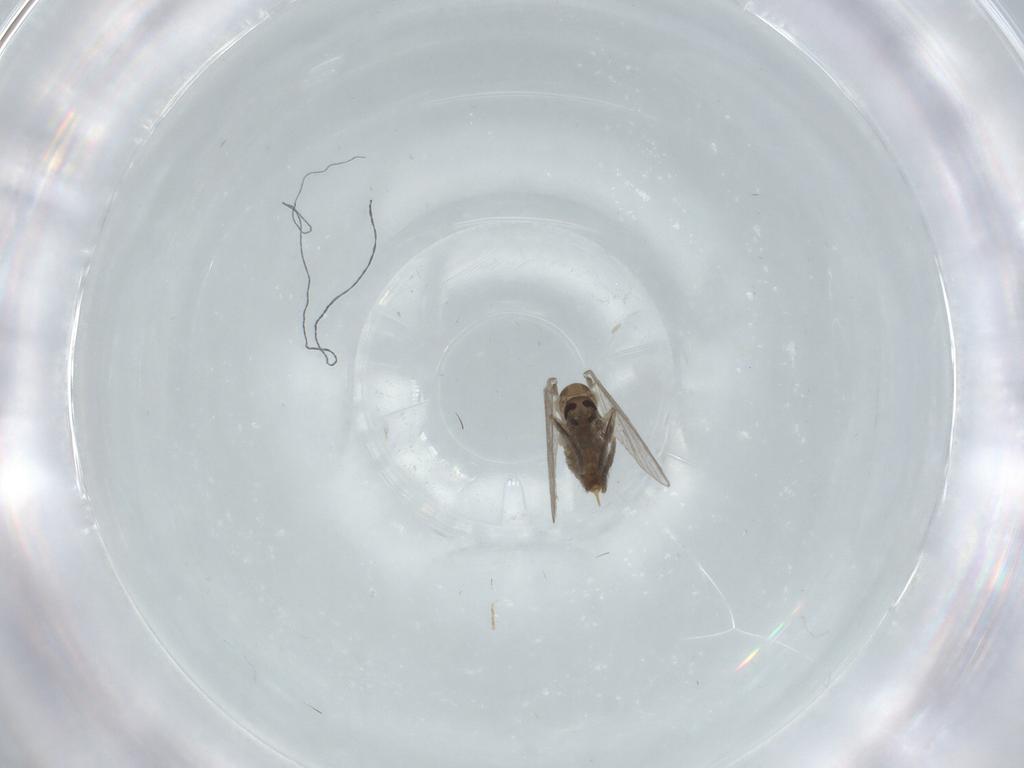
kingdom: Animalia
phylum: Arthropoda
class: Insecta
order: Diptera
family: Psychodidae
